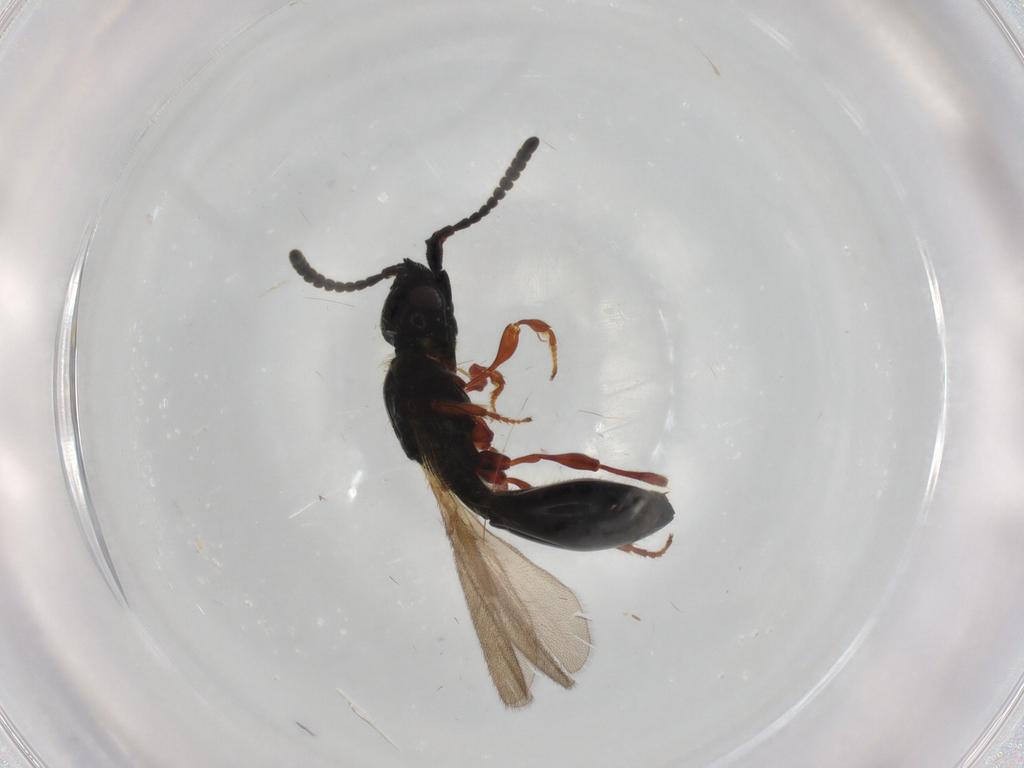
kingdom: Animalia
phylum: Arthropoda
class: Insecta
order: Hymenoptera
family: Diapriidae
